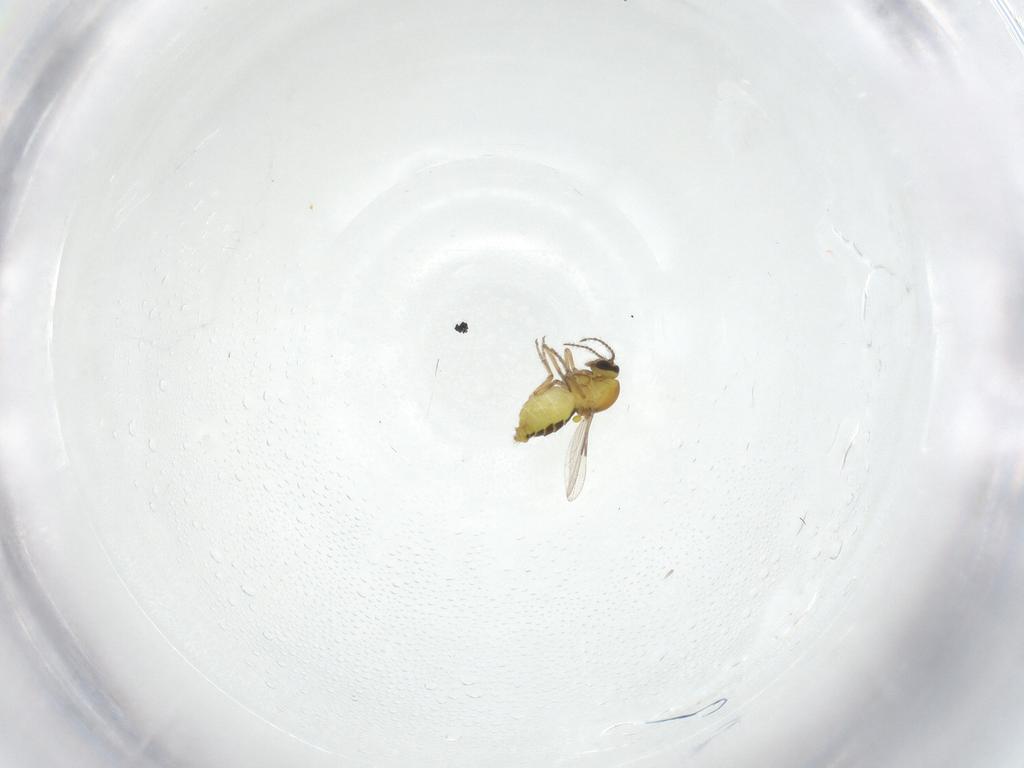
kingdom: Animalia
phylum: Arthropoda
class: Insecta
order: Diptera
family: Ceratopogonidae
